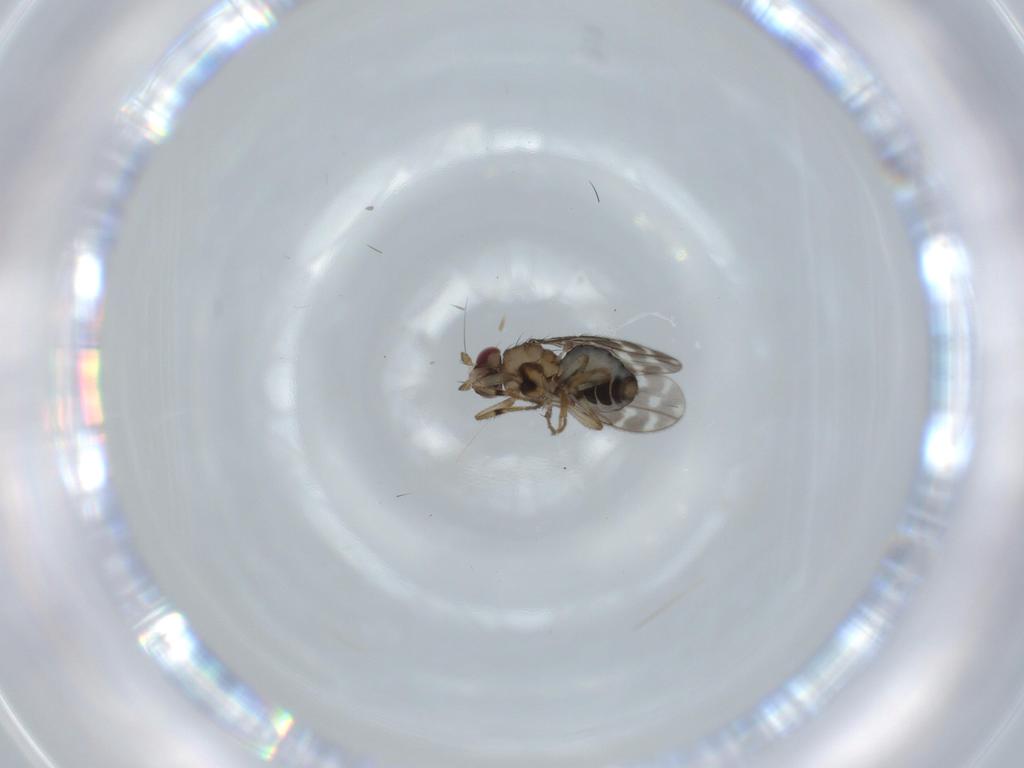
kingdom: Animalia
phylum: Arthropoda
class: Insecta
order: Diptera
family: Sphaeroceridae
